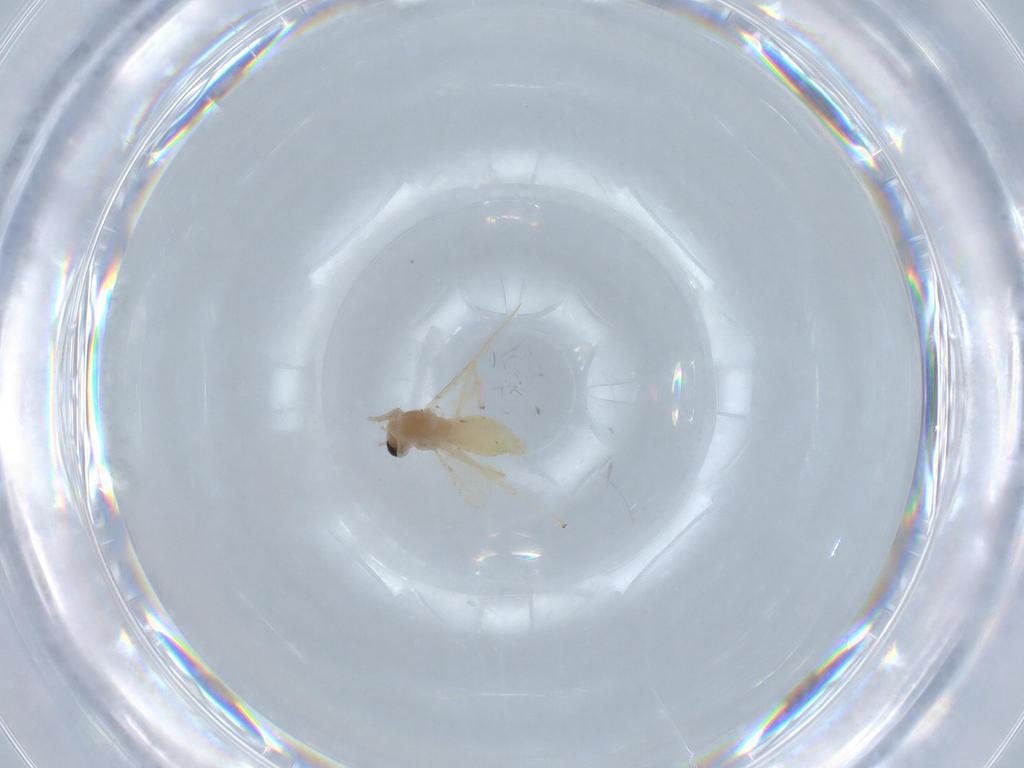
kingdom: Animalia
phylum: Arthropoda
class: Insecta
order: Diptera
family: Chironomidae
